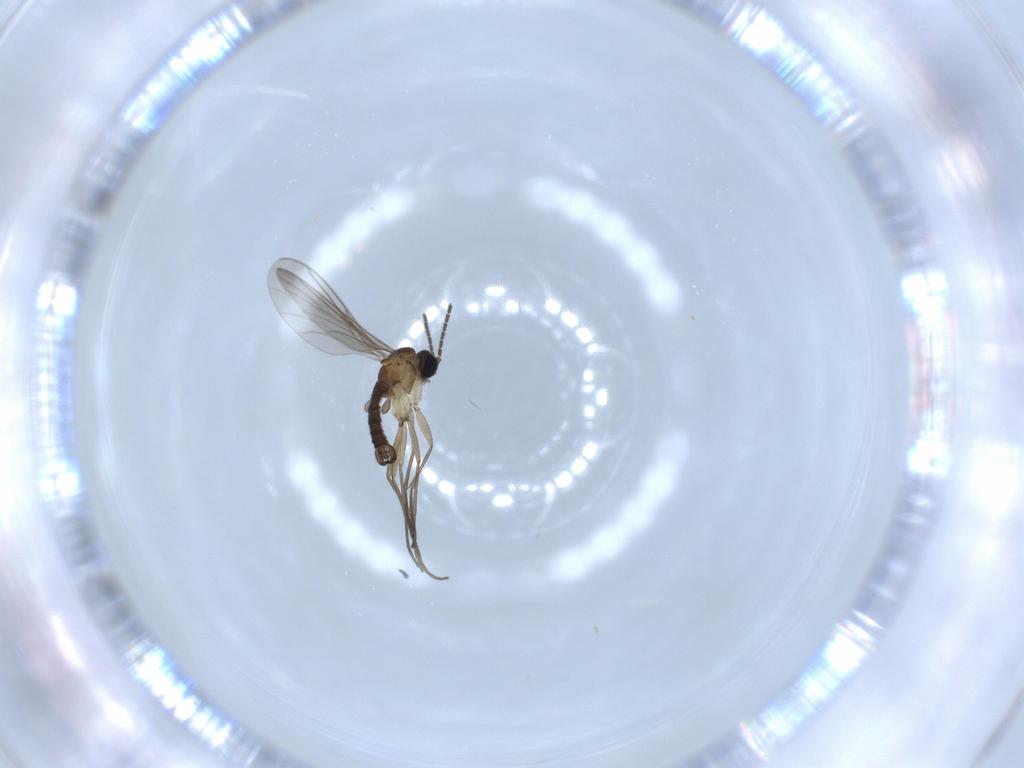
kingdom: Animalia
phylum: Arthropoda
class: Insecta
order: Diptera
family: Sciaridae
